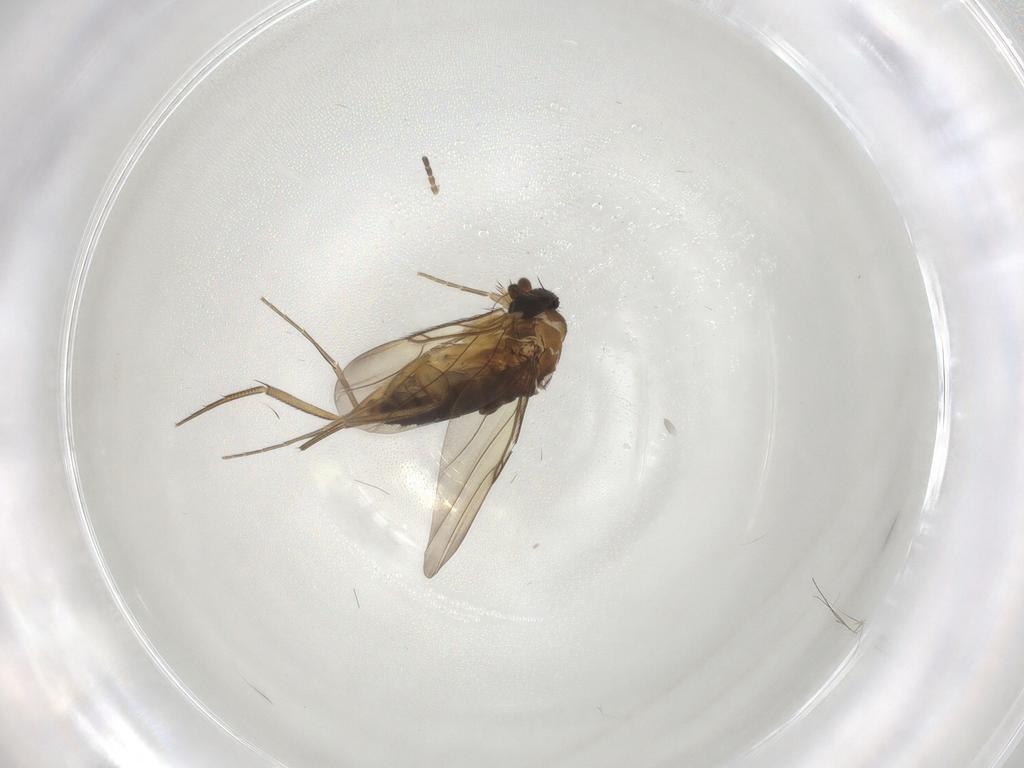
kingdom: Animalia
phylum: Arthropoda
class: Insecta
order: Diptera
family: Phoridae
